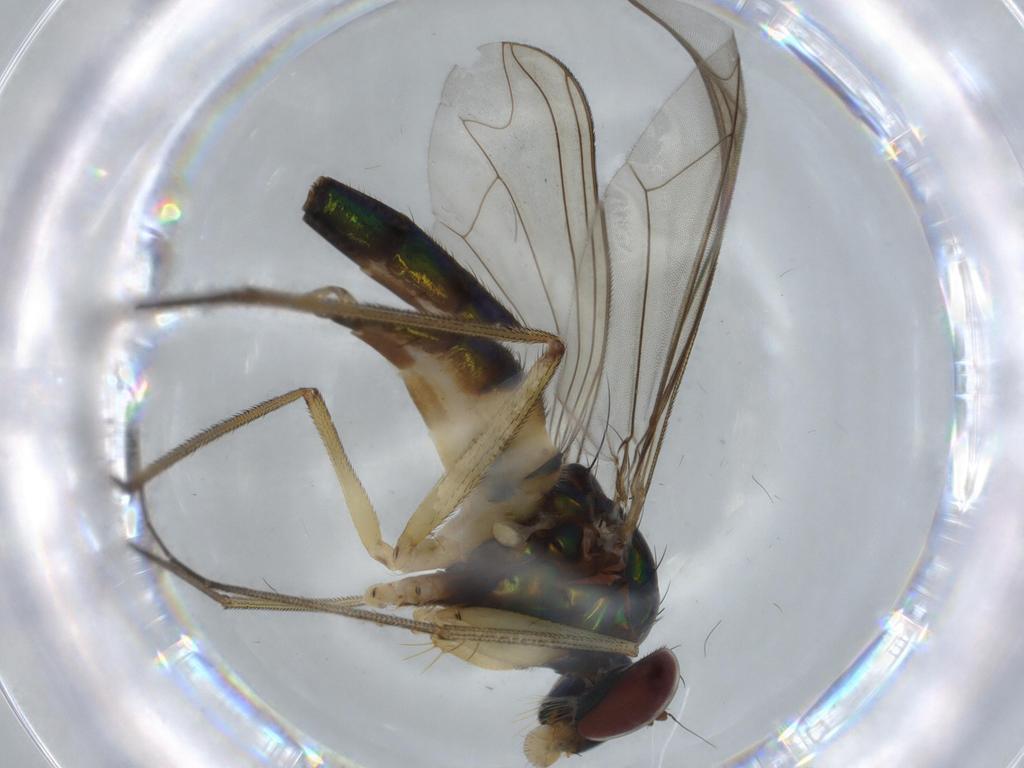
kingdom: Animalia
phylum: Arthropoda
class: Insecta
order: Diptera
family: Dolichopodidae
